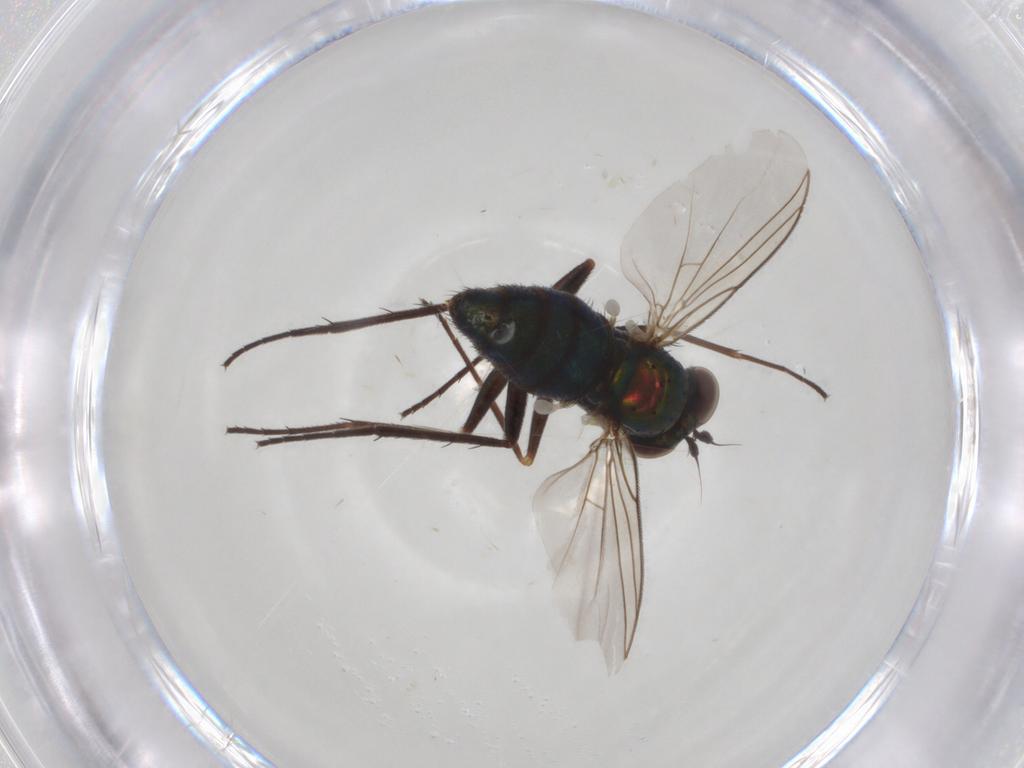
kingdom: Animalia
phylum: Arthropoda
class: Insecta
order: Diptera
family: Dolichopodidae
